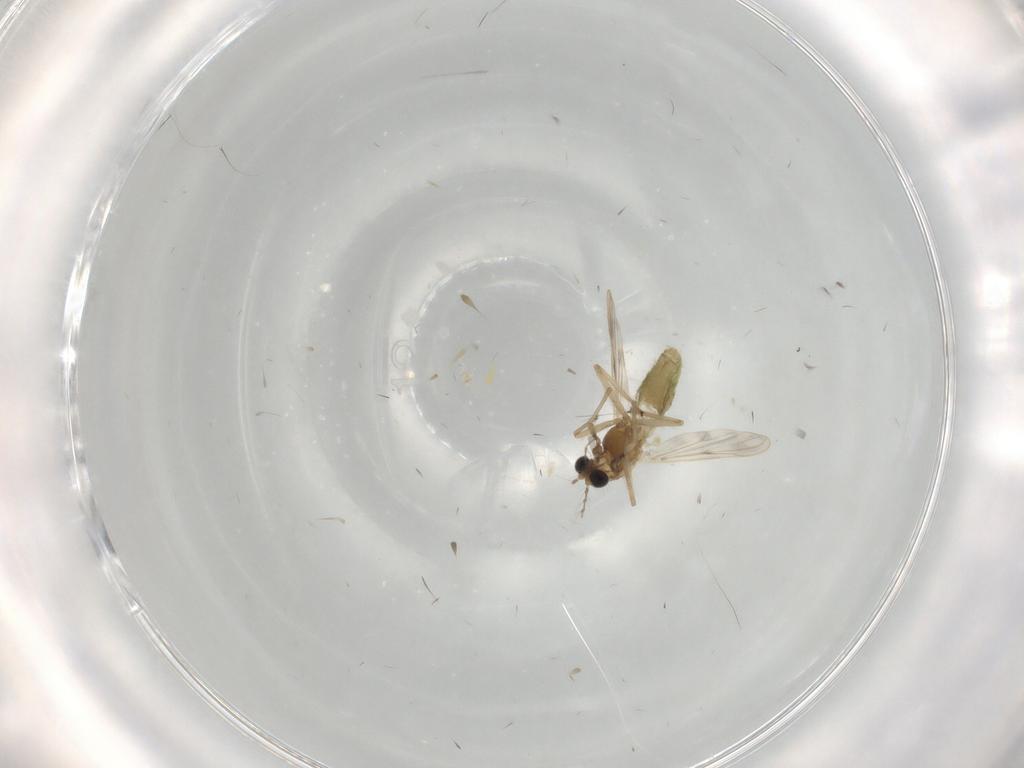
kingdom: Animalia
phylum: Arthropoda
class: Insecta
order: Diptera
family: Chironomidae
